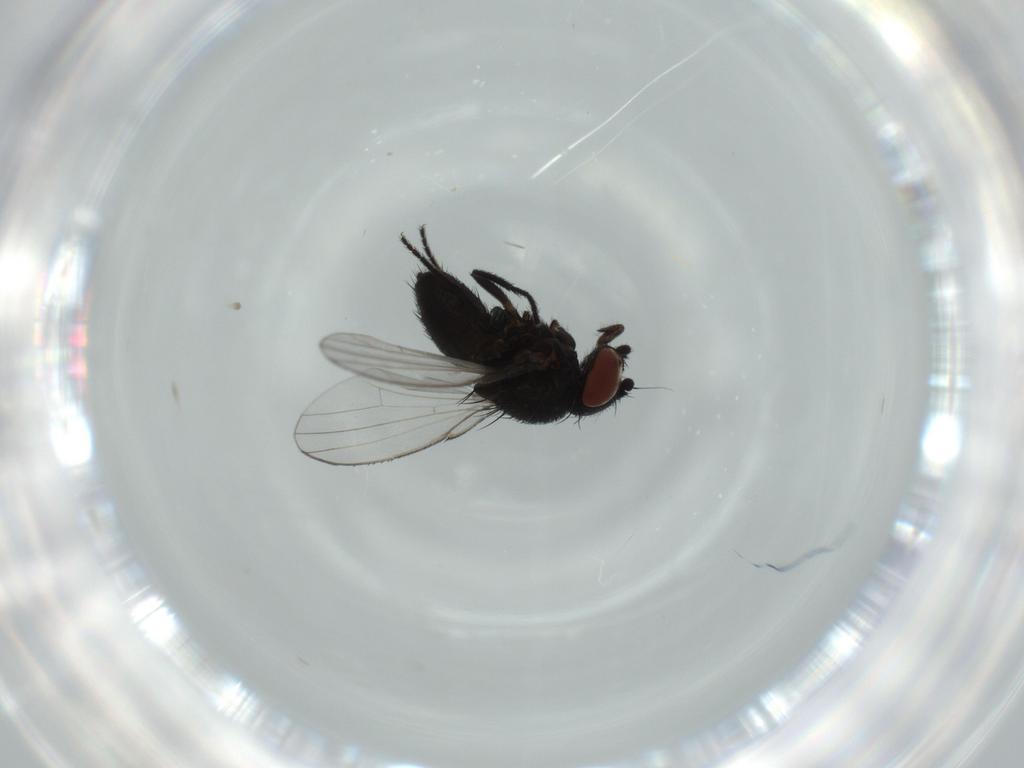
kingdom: Animalia
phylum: Arthropoda
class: Insecta
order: Diptera
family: Milichiidae
